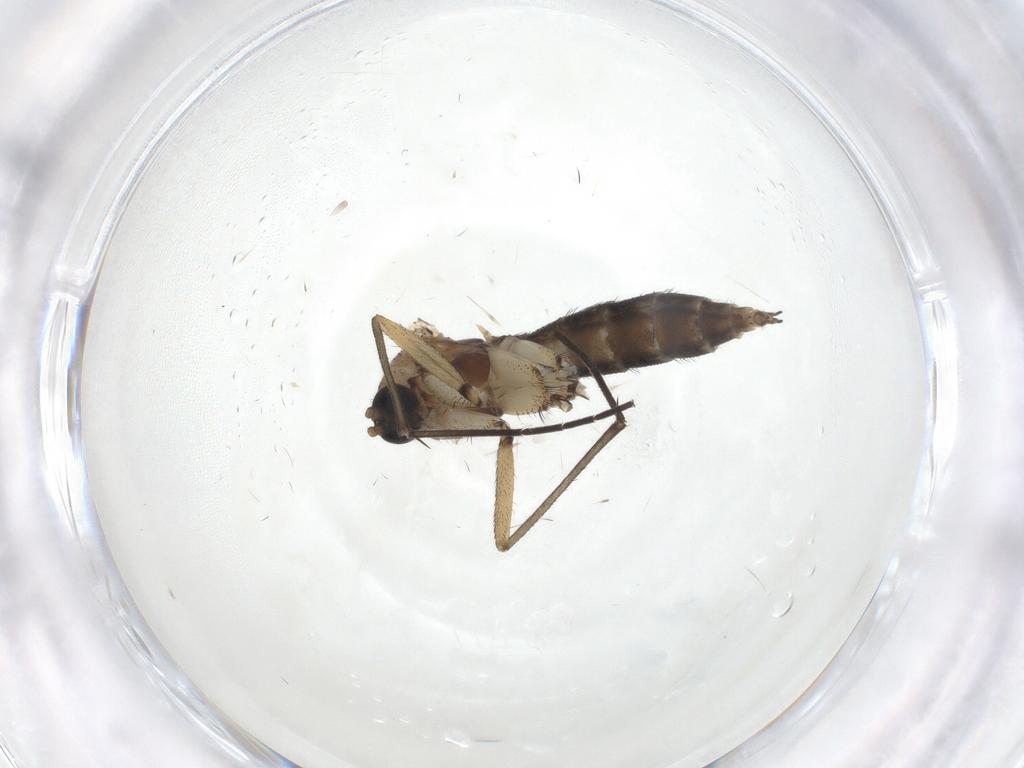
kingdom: Animalia
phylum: Arthropoda
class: Insecta
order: Diptera
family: Sciaridae
